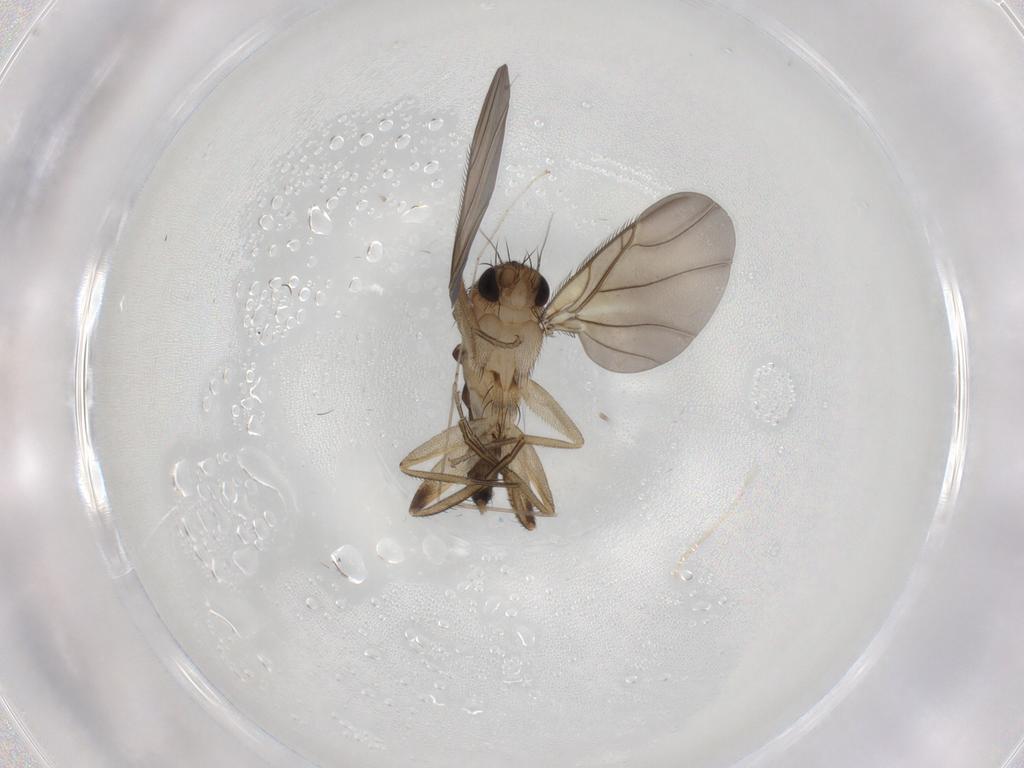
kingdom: Animalia
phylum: Arthropoda
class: Insecta
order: Diptera
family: Phoridae
